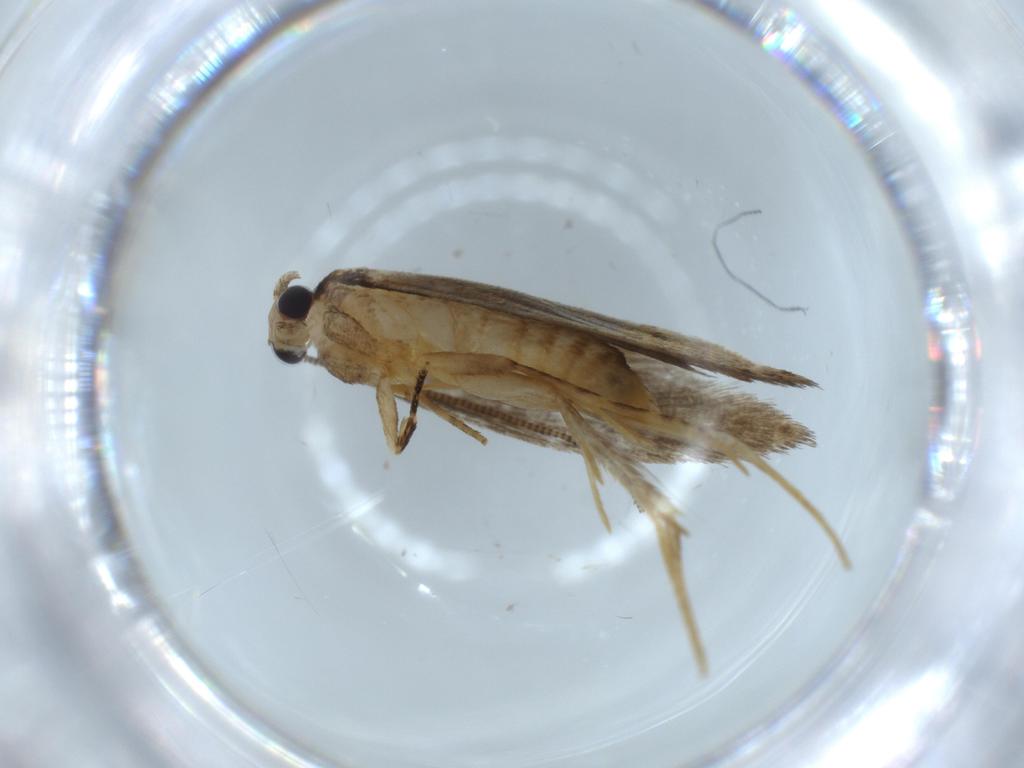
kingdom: Animalia
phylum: Arthropoda
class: Insecta
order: Lepidoptera
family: Tineidae
